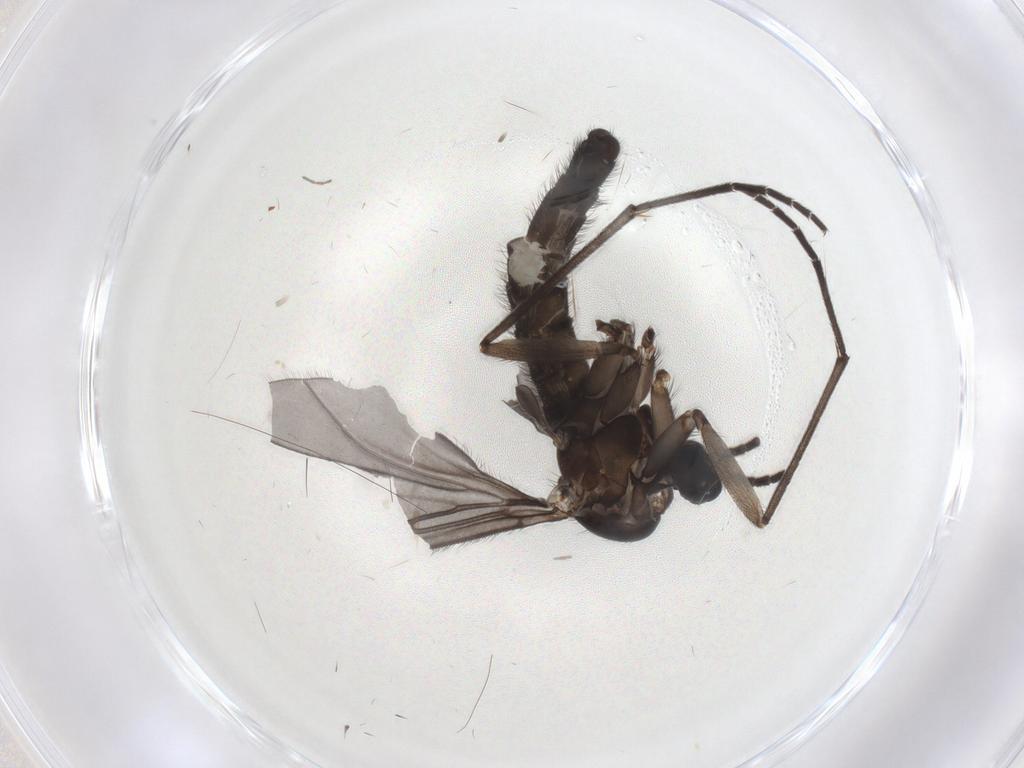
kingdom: Animalia
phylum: Arthropoda
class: Insecta
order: Diptera
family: Sciaridae
